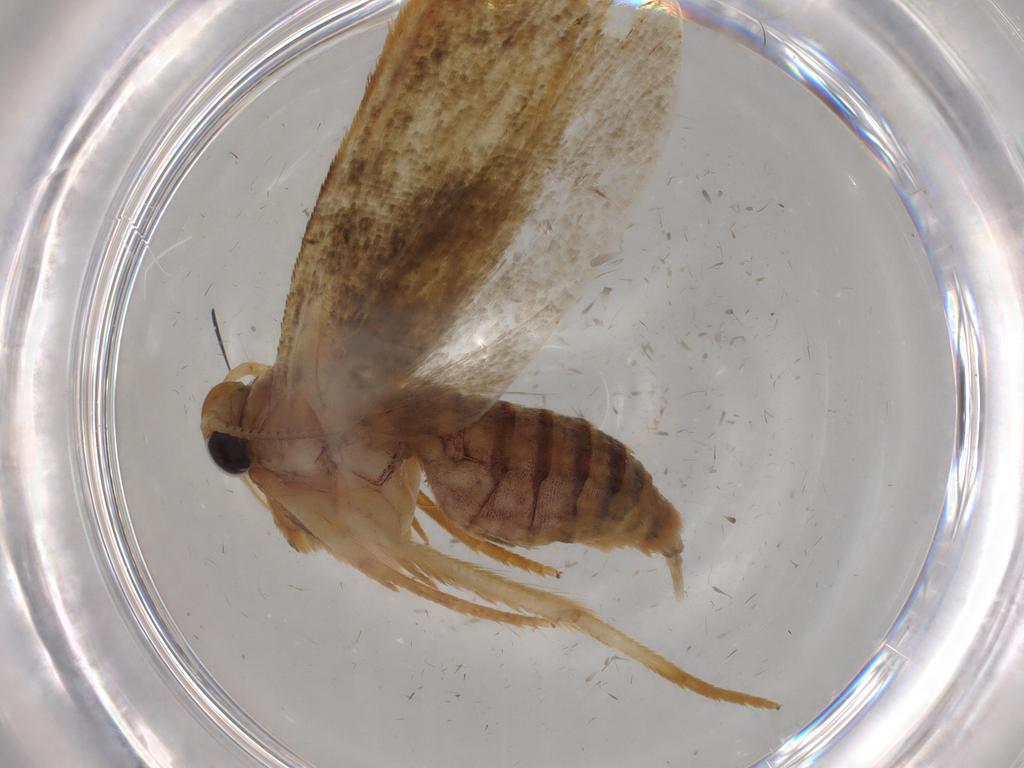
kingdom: Animalia
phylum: Arthropoda
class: Insecta
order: Lepidoptera
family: Blastobasidae
